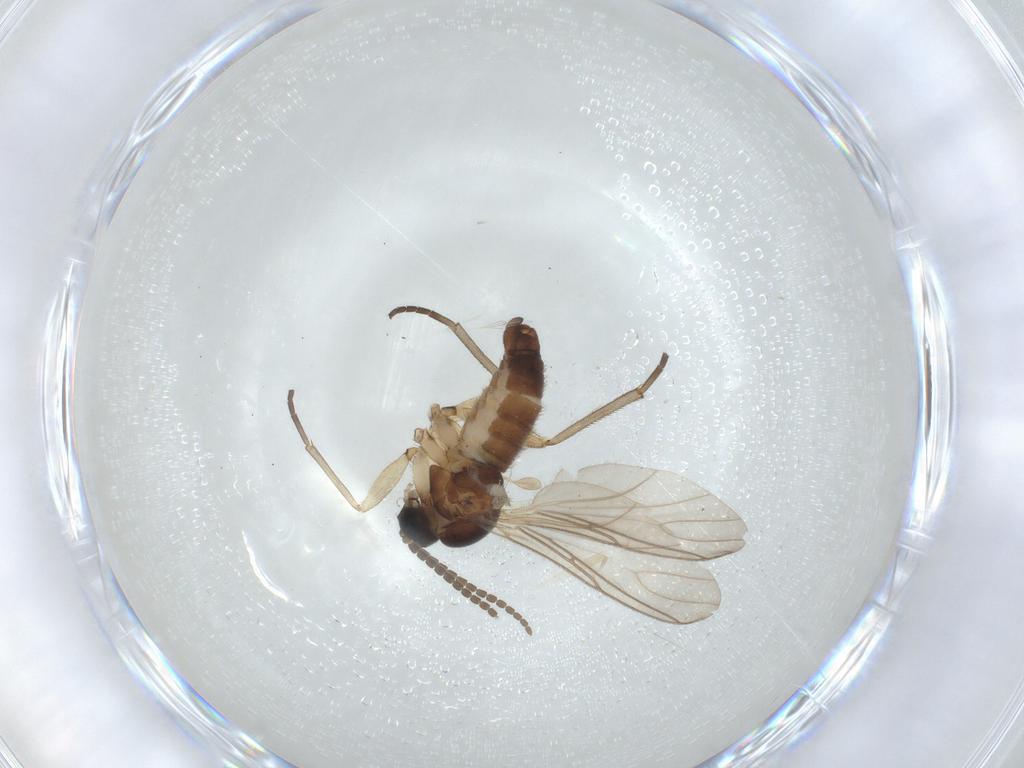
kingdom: Animalia
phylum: Arthropoda
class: Insecta
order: Diptera
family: Sciaridae
